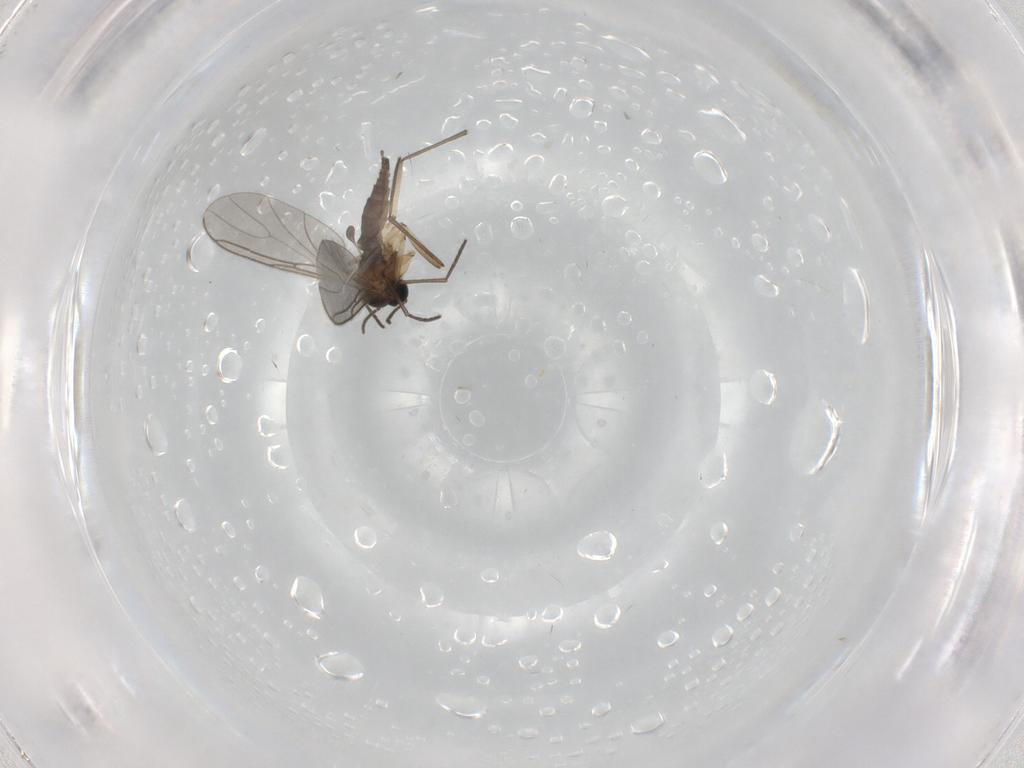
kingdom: Animalia
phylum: Arthropoda
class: Insecta
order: Diptera
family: Sciaridae
